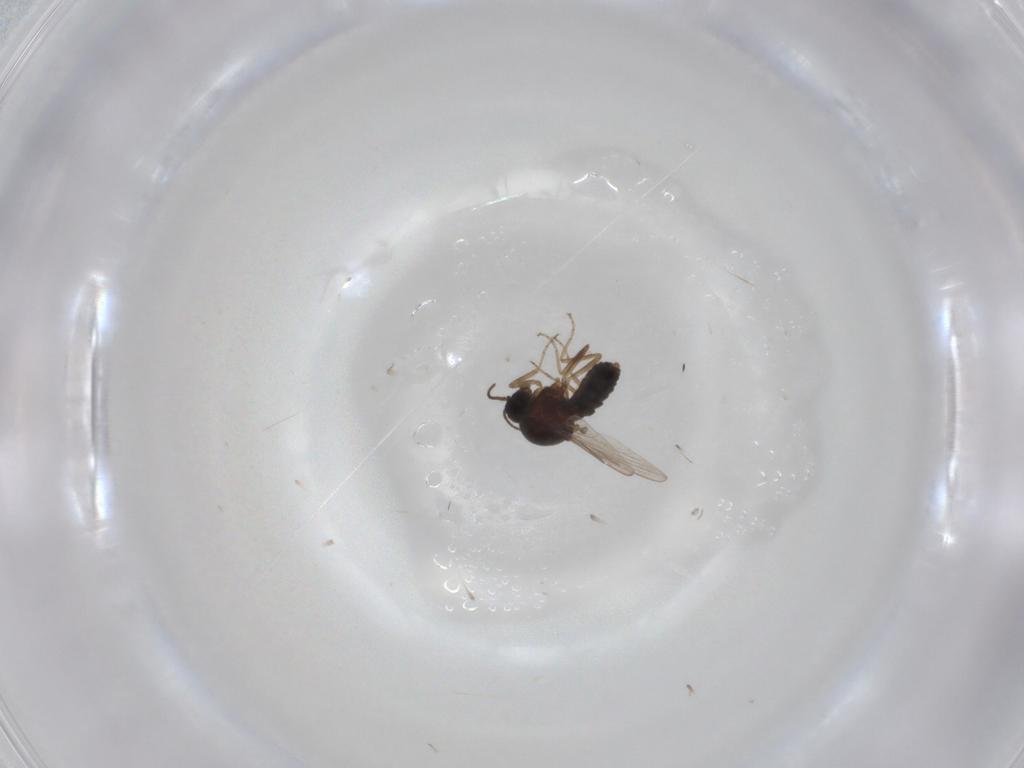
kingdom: Animalia
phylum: Arthropoda
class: Insecta
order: Diptera
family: Ceratopogonidae
